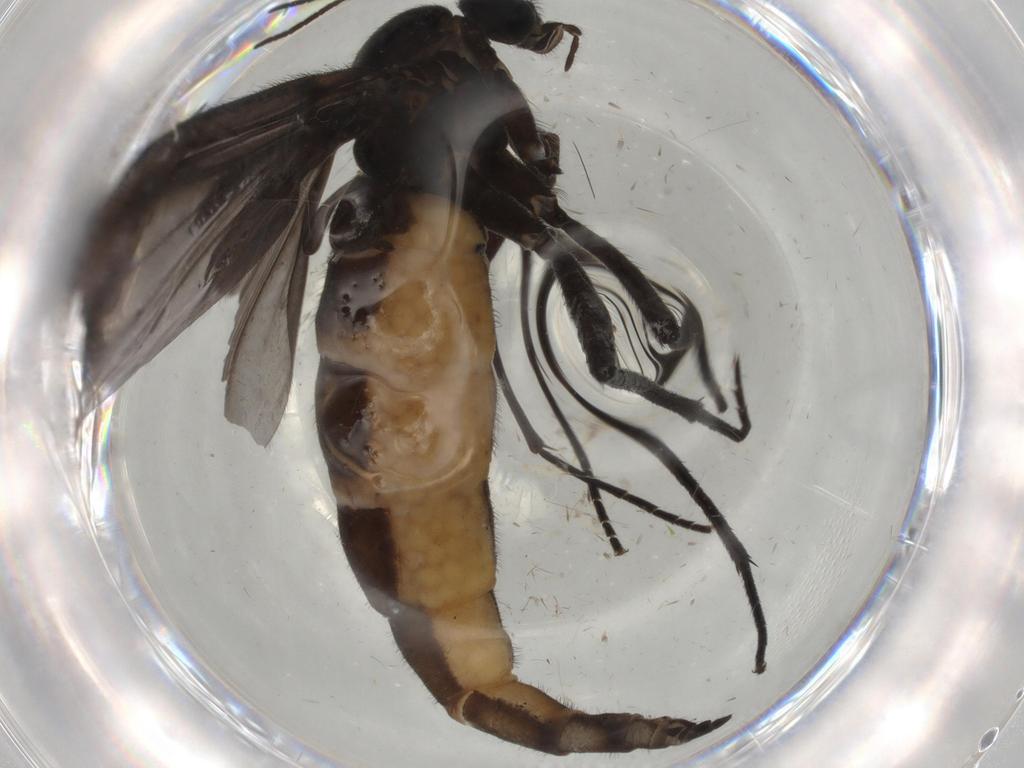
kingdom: Animalia
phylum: Arthropoda
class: Insecta
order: Diptera
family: Sciaridae
